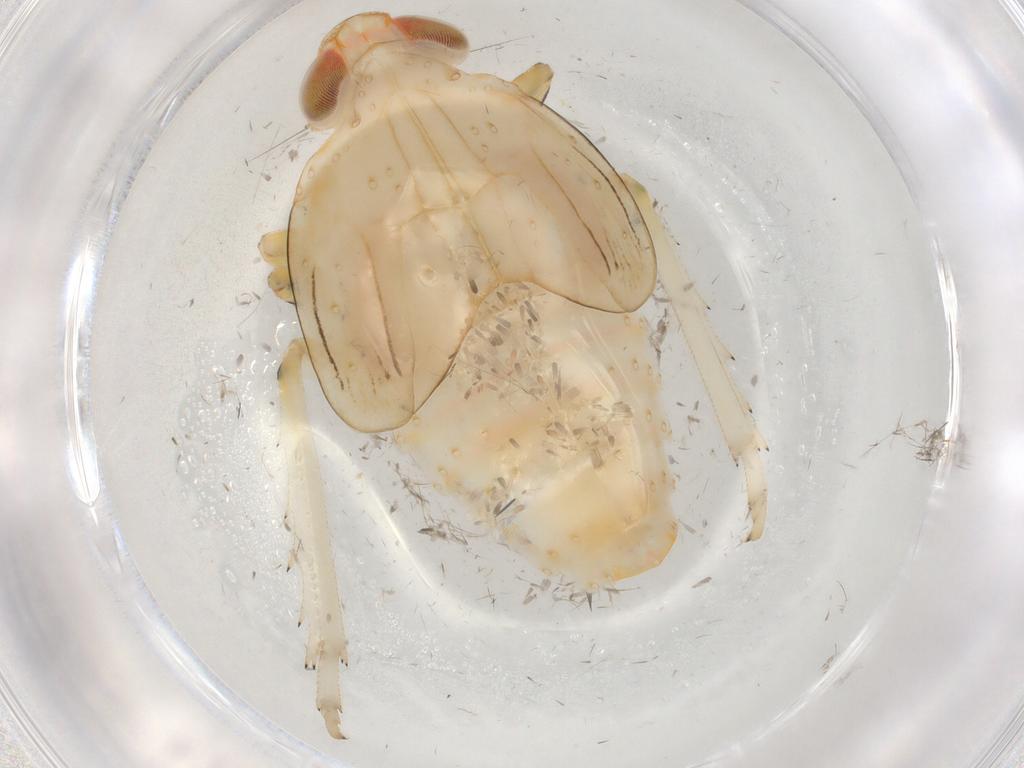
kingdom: Animalia
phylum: Arthropoda
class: Insecta
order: Hemiptera
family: Issidae
